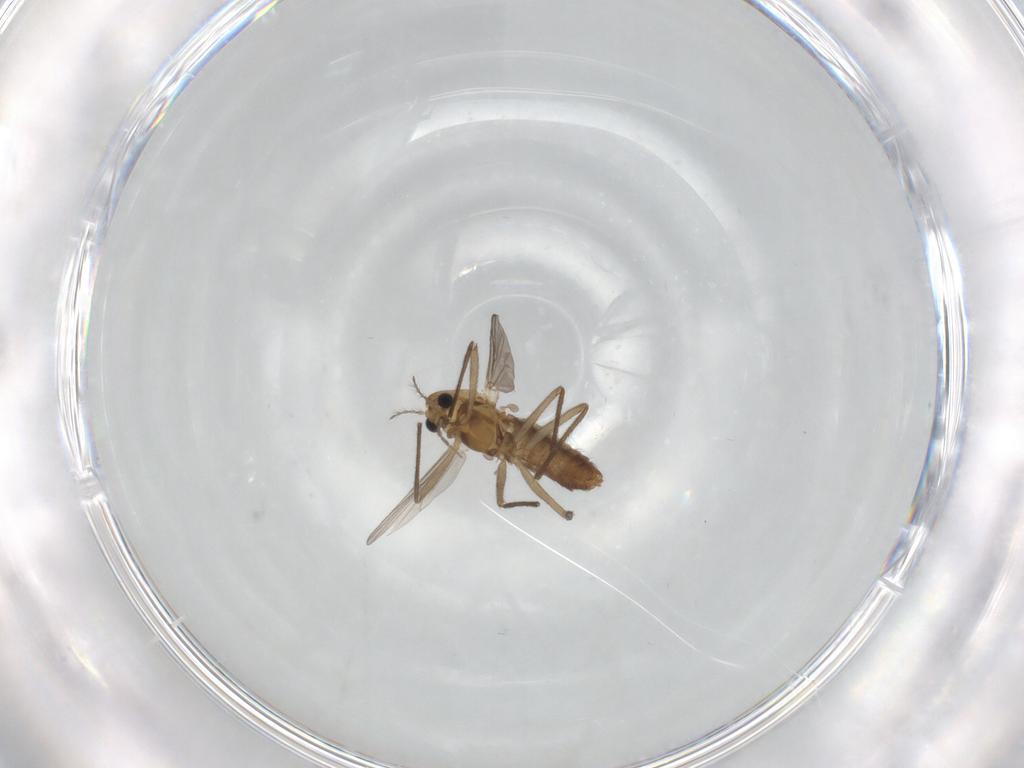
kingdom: Animalia
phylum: Arthropoda
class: Insecta
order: Diptera
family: Chironomidae
